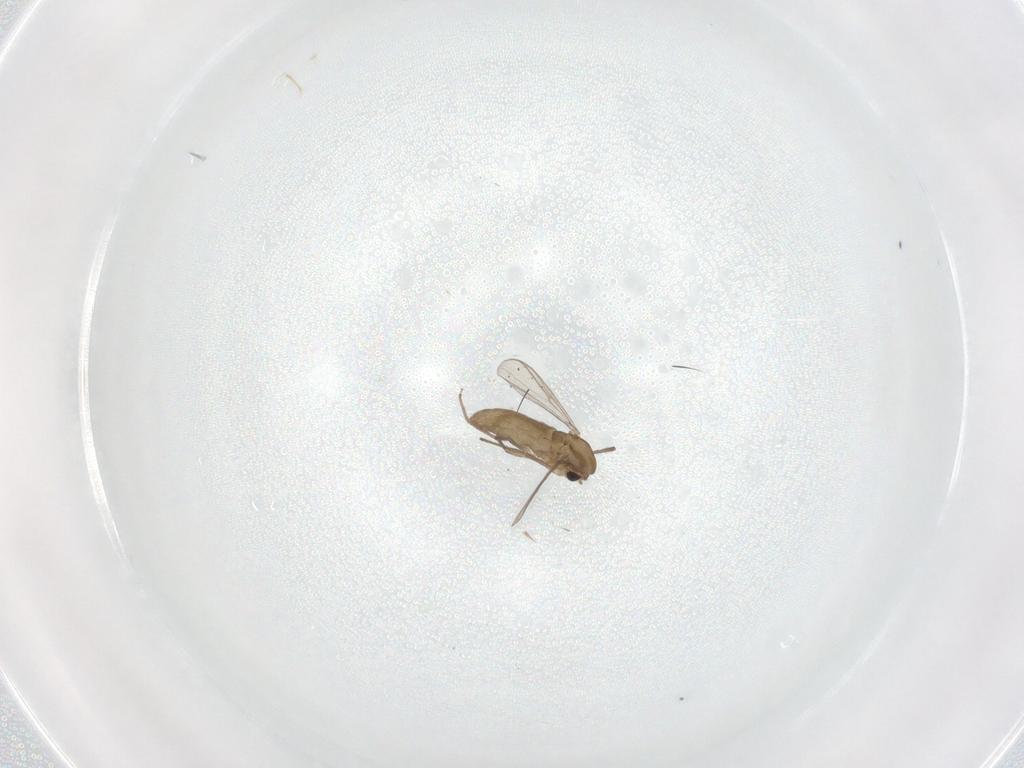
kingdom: Animalia
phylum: Arthropoda
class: Insecta
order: Diptera
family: Chironomidae
